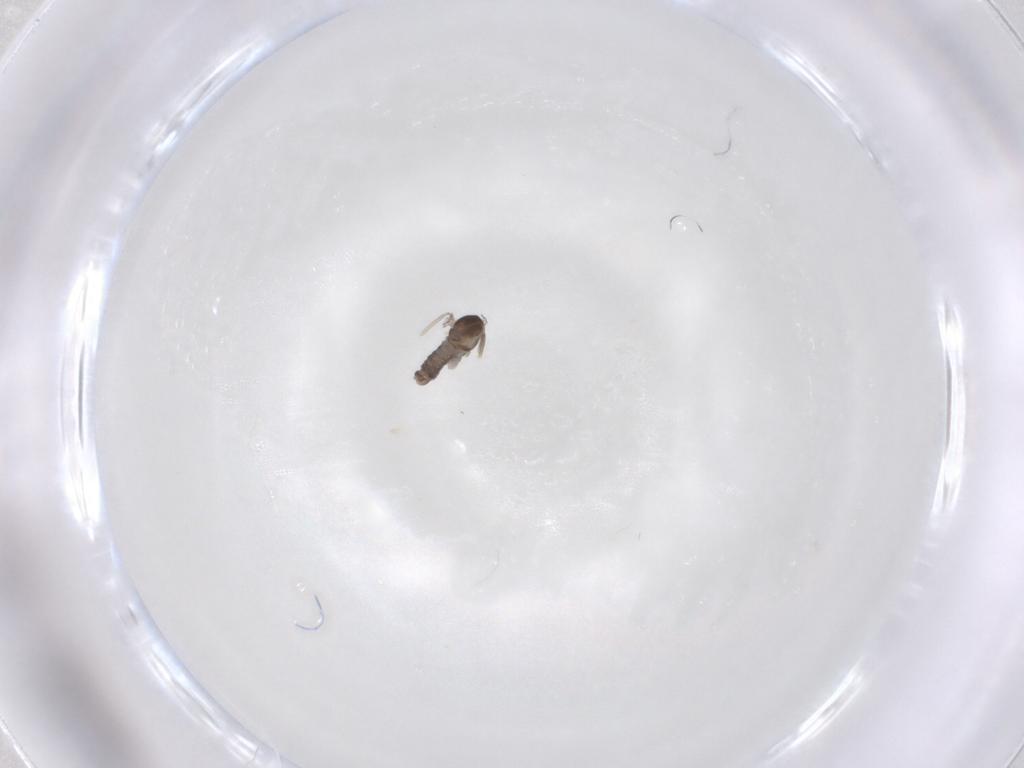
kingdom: Animalia
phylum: Arthropoda
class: Insecta
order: Diptera
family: Cecidomyiidae
